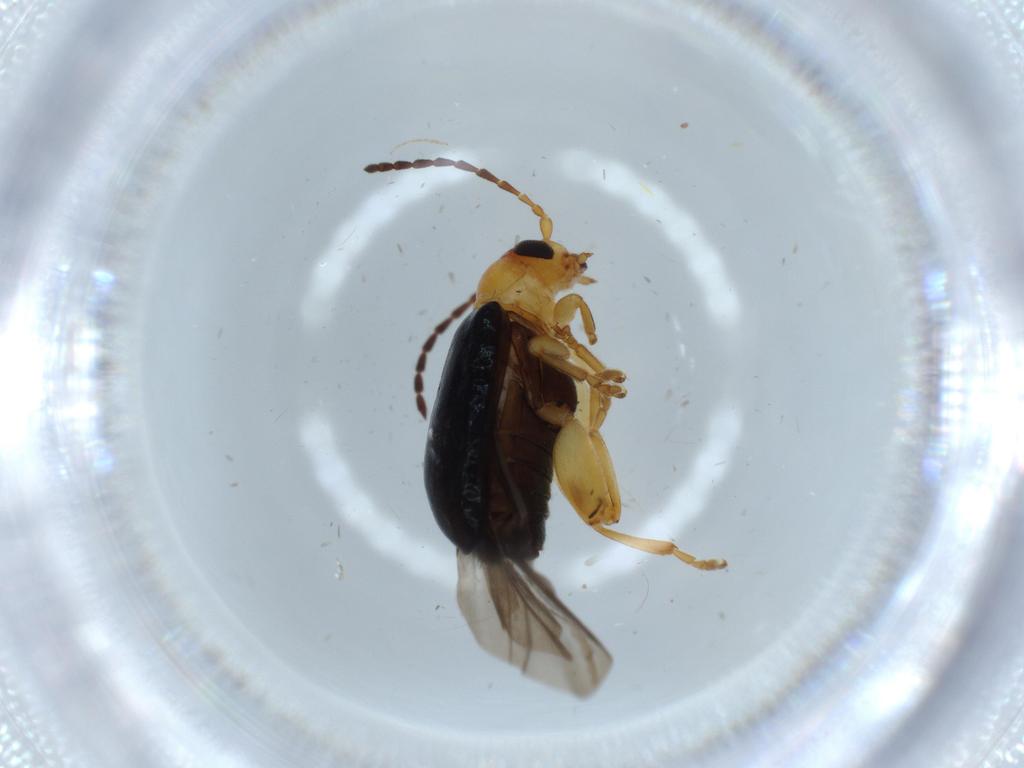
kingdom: Animalia
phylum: Arthropoda
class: Insecta
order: Coleoptera
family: Chrysomelidae
